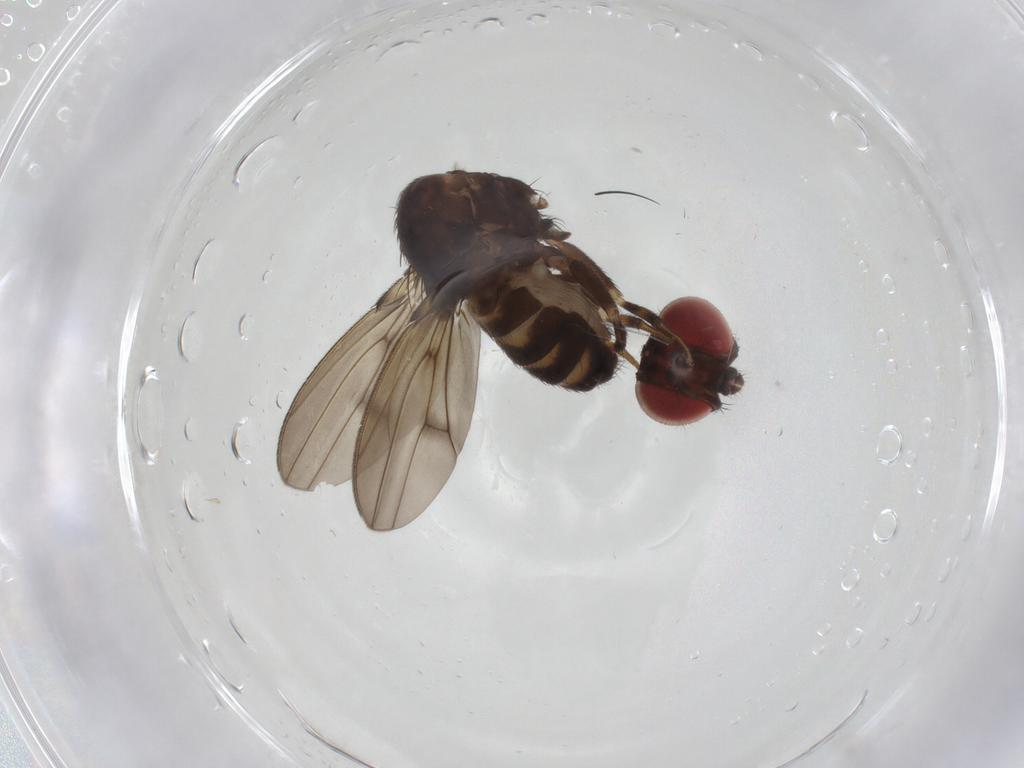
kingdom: Animalia
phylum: Arthropoda
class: Insecta
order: Diptera
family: Drosophilidae
